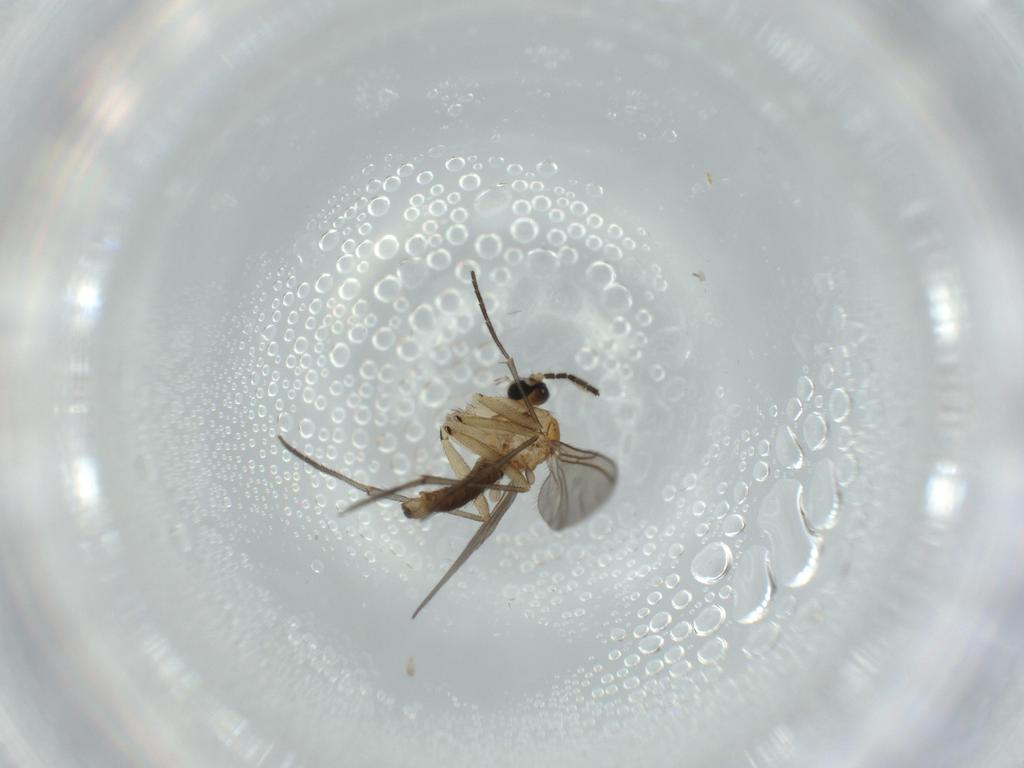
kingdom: Animalia
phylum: Arthropoda
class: Insecta
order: Diptera
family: Sciaridae
